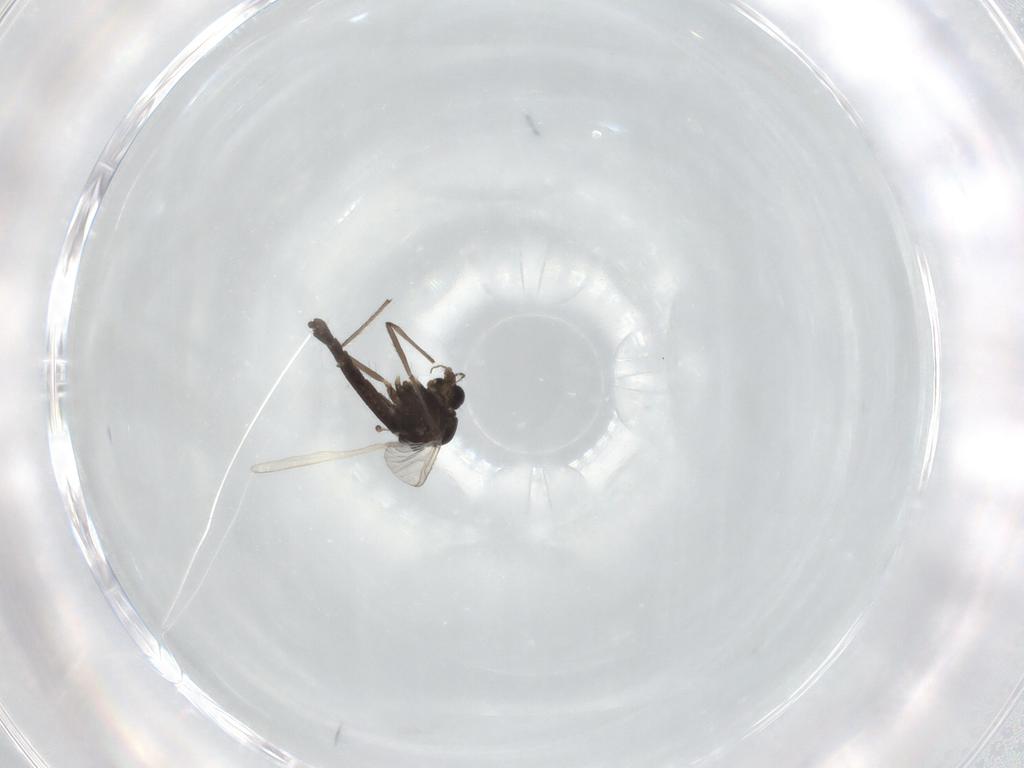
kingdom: Animalia
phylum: Arthropoda
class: Insecta
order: Diptera
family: Chironomidae
